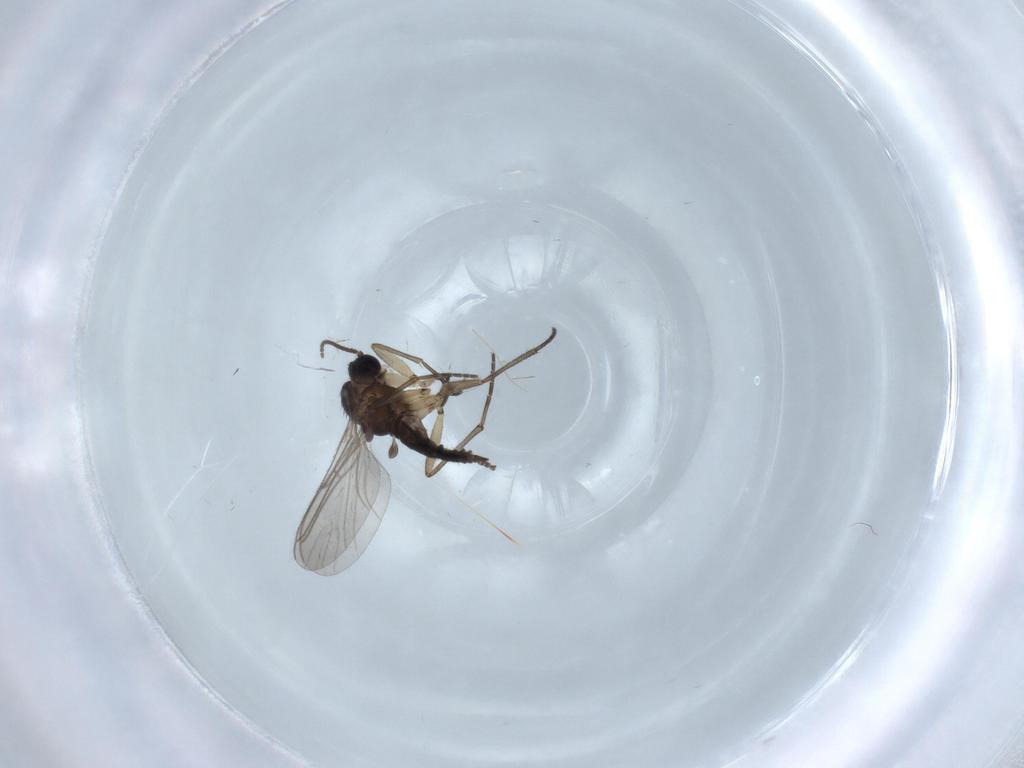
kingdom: Animalia
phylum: Arthropoda
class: Insecta
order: Diptera
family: Sciaridae
